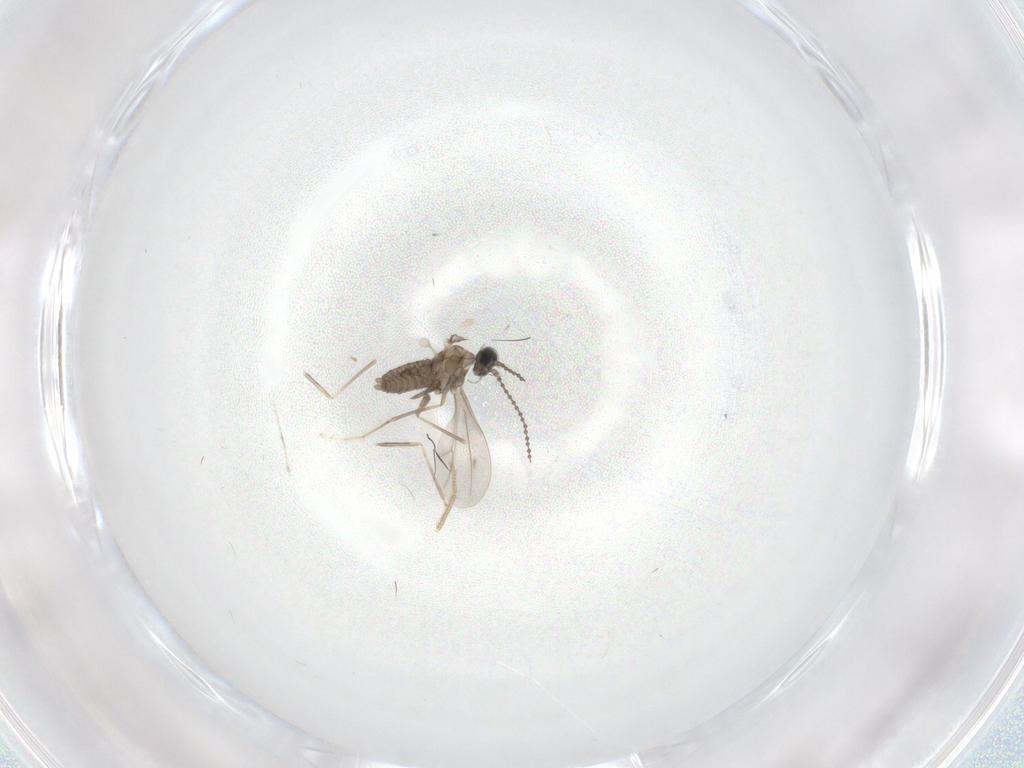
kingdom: Animalia
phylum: Arthropoda
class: Insecta
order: Diptera
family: Cecidomyiidae
